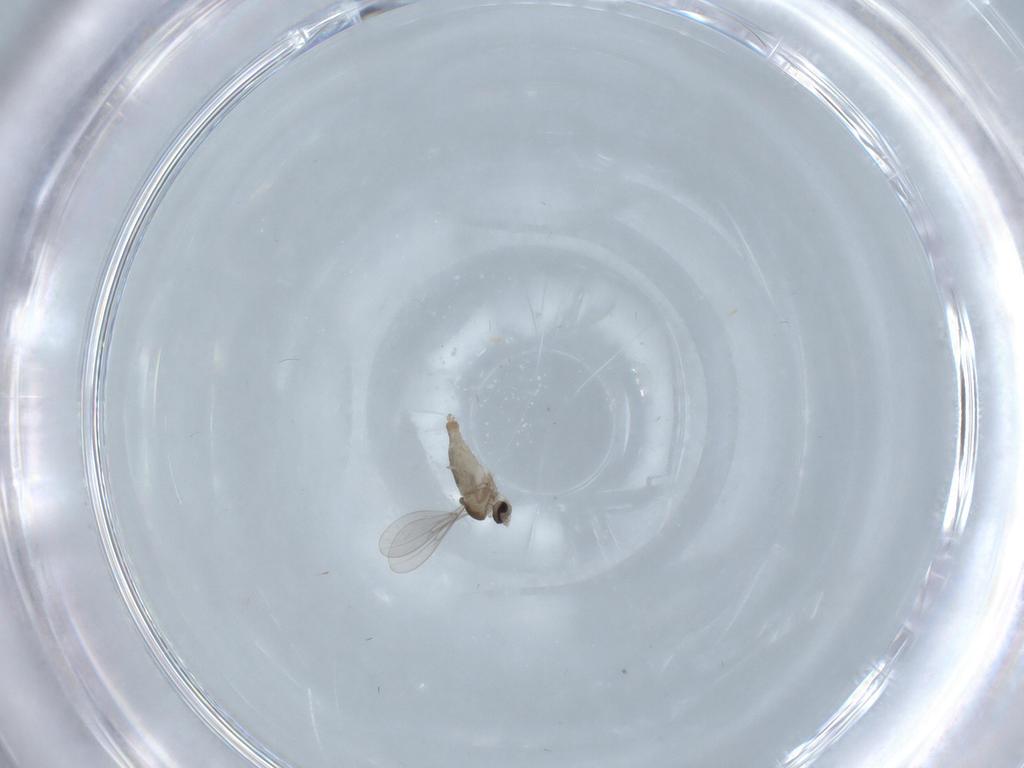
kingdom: Animalia
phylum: Arthropoda
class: Insecta
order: Diptera
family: Cecidomyiidae
